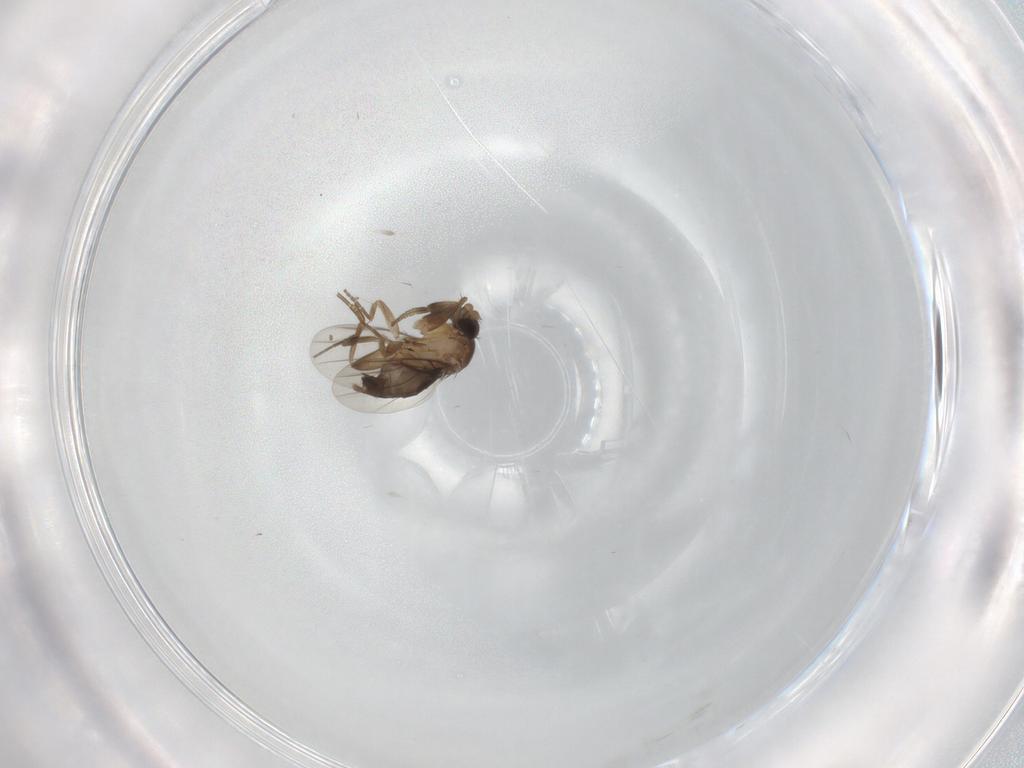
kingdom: Animalia
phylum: Arthropoda
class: Insecta
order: Diptera
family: Periscelididae
